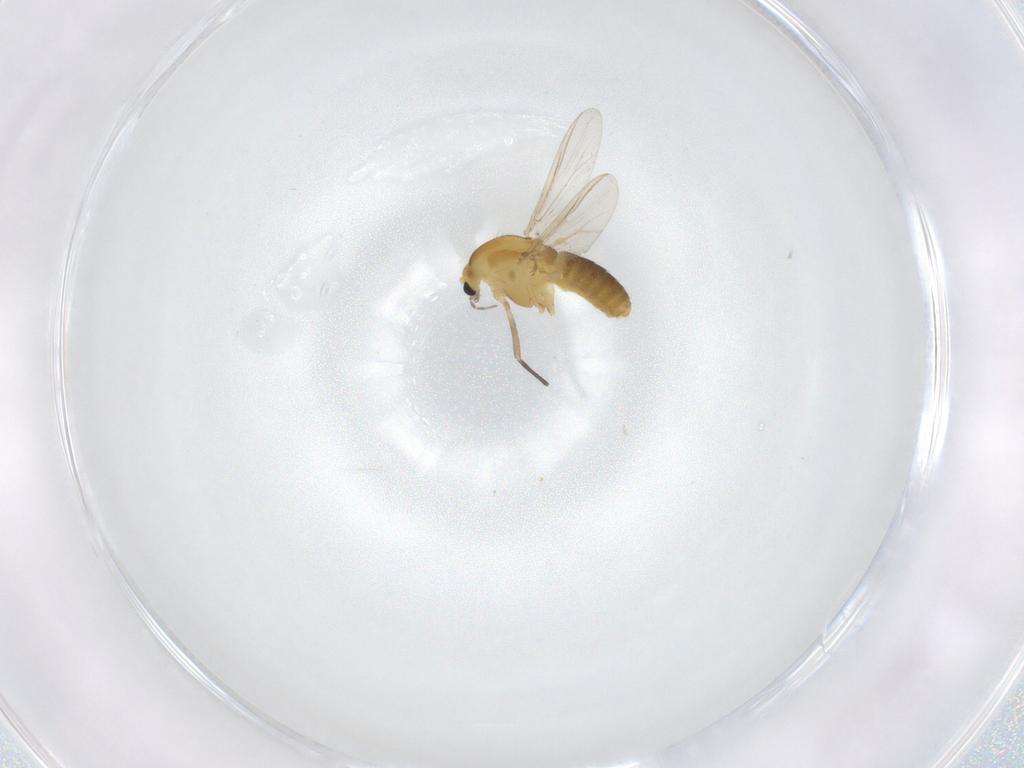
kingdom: Animalia
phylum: Arthropoda
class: Insecta
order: Diptera
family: Chironomidae
